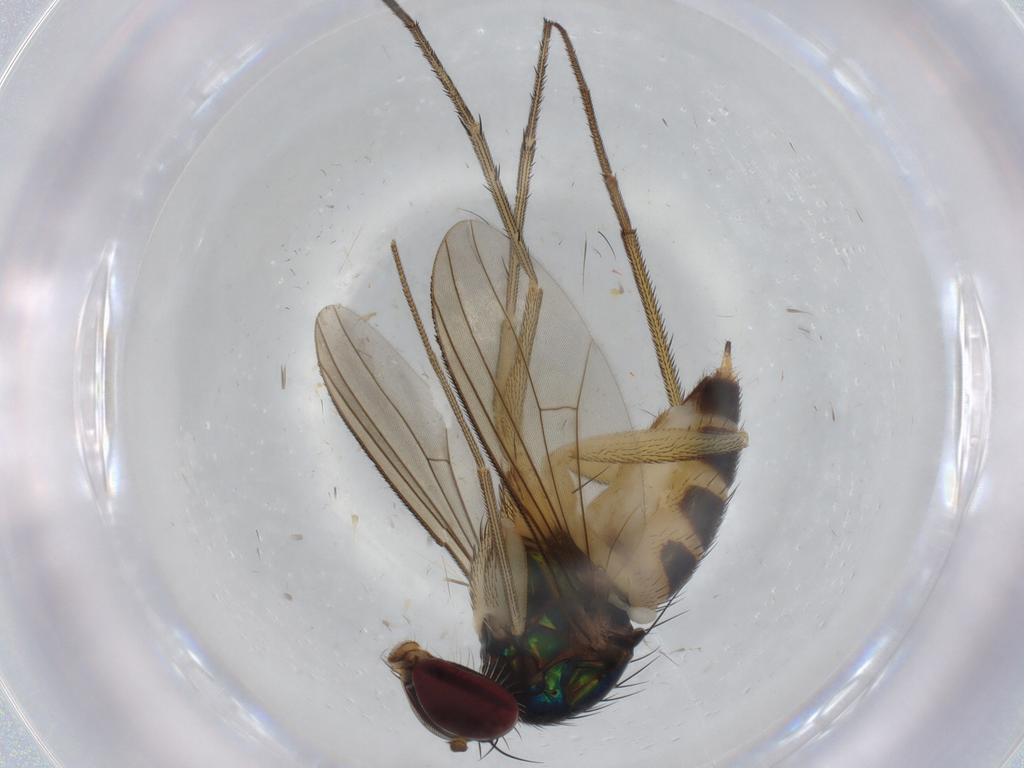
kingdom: Animalia
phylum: Arthropoda
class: Insecta
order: Diptera
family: Dolichopodidae
